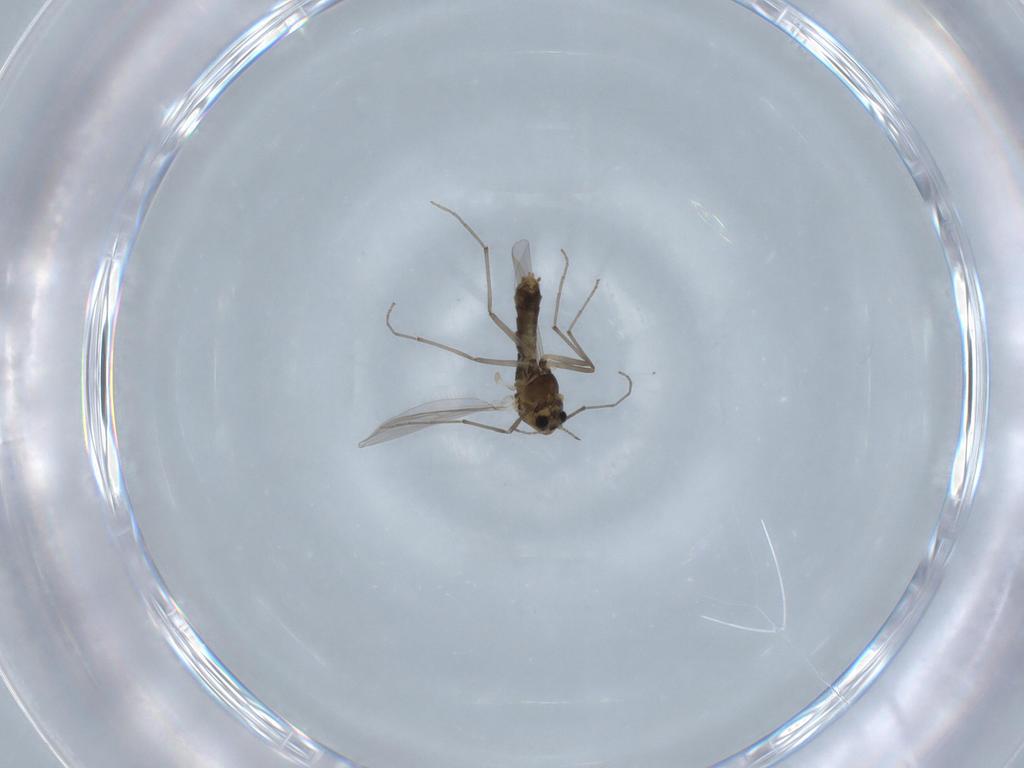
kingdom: Animalia
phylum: Arthropoda
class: Insecta
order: Diptera
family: Chironomidae
